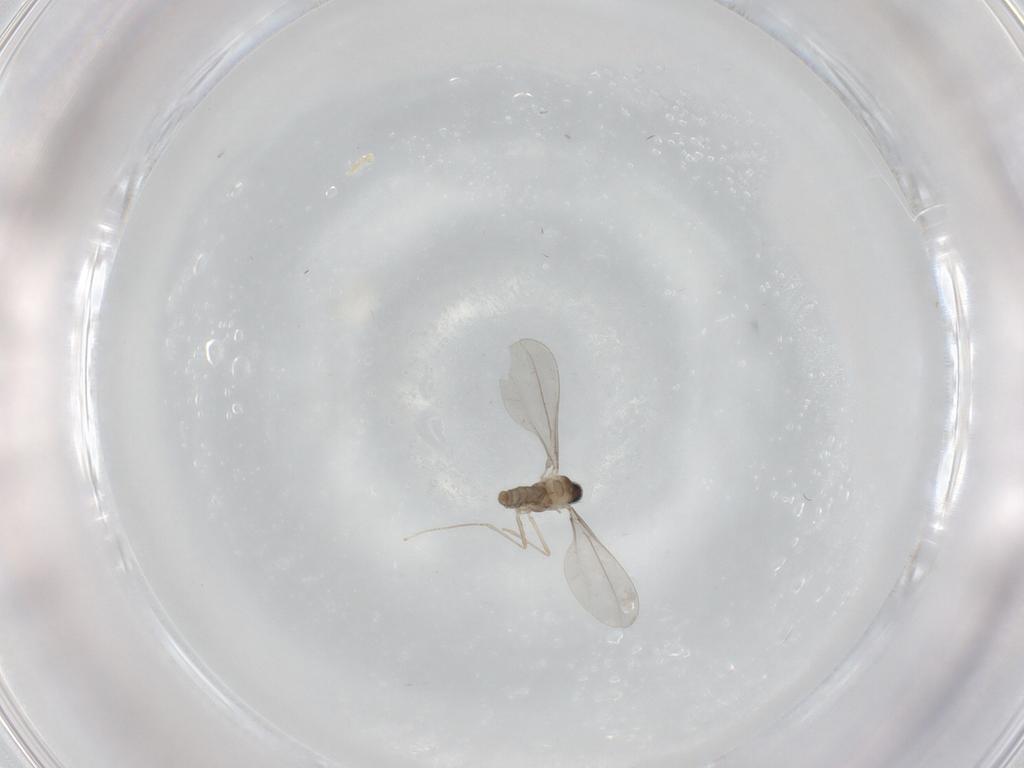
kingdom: Animalia
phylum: Arthropoda
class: Insecta
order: Diptera
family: Cecidomyiidae
